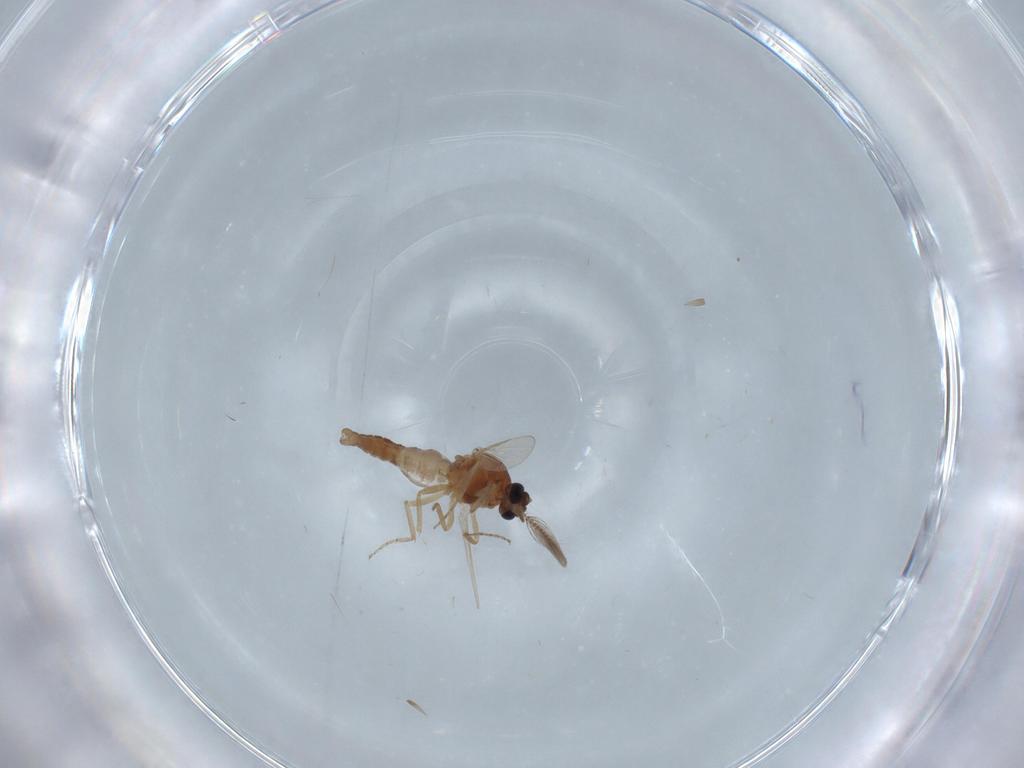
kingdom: Animalia
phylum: Arthropoda
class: Insecta
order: Diptera
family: Ceratopogonidae
